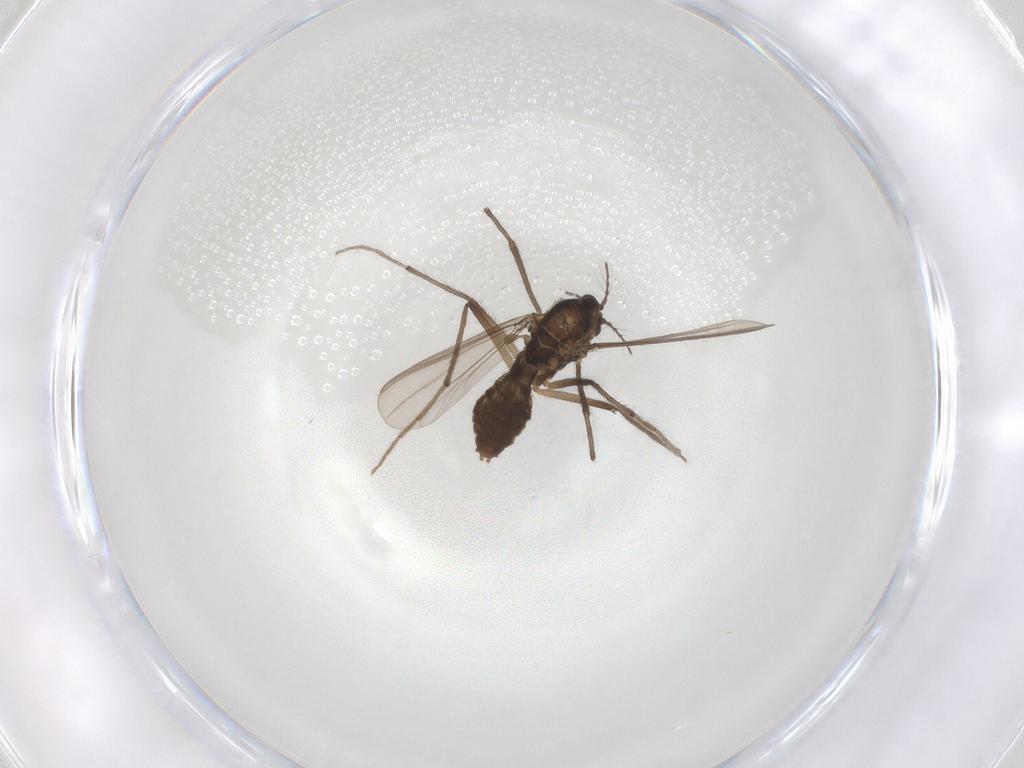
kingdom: Animalia
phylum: Arthropoda
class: Insecta
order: Diptera
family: Chironomidae
